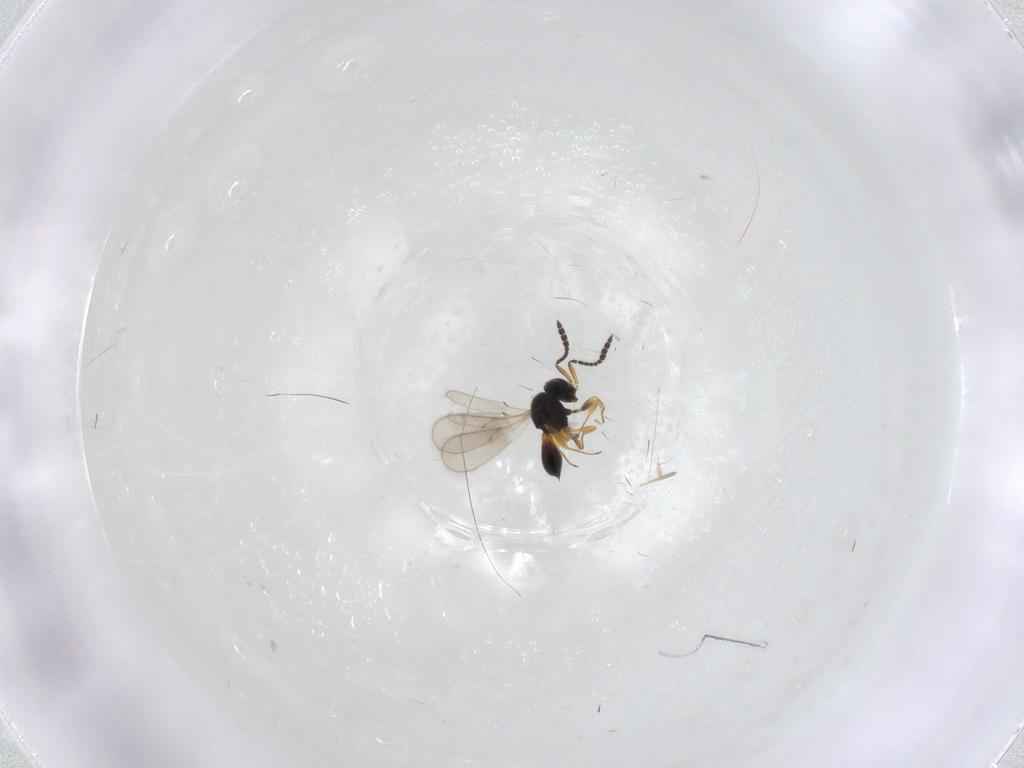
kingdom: Animalia
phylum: Arthropoda
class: Insecta
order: Hymenoptera
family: Scelionidae
